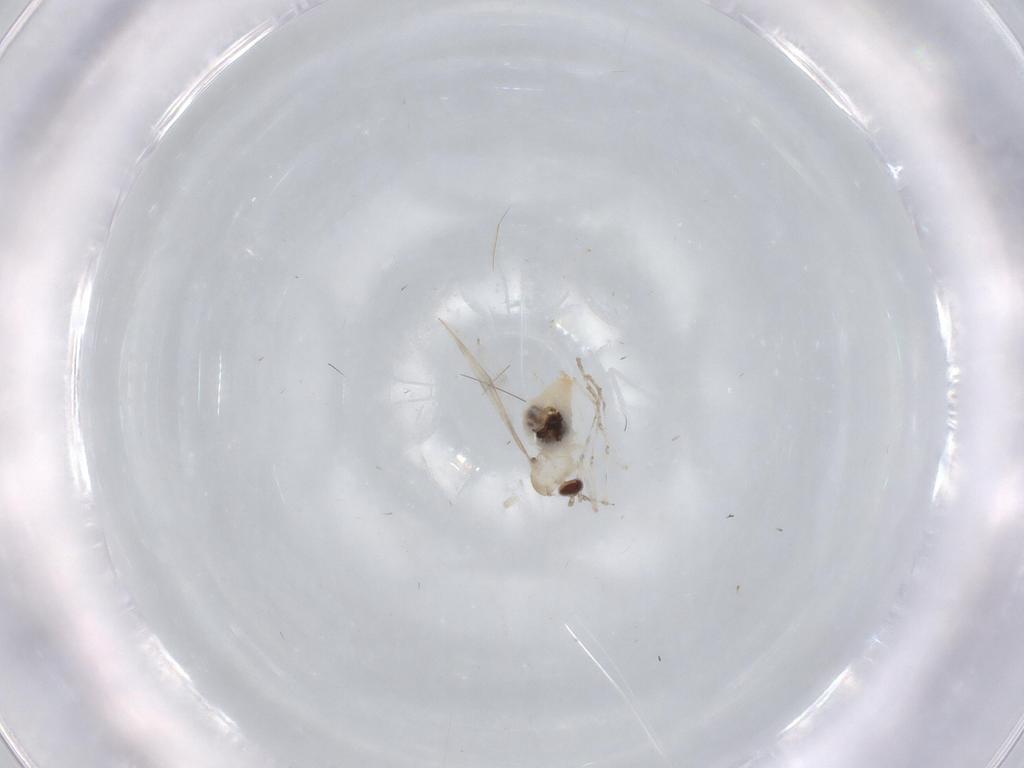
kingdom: Animalia
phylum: Arthropoda
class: Insecta
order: Diptera
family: Cecidomyiidae
